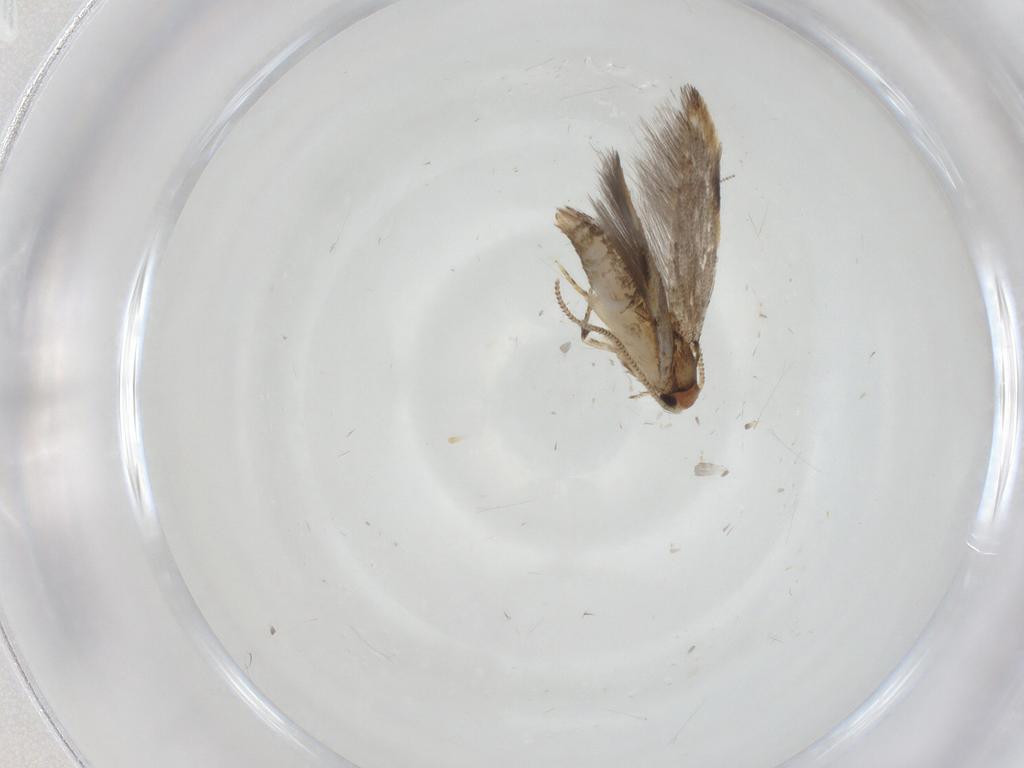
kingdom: Animalia
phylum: Arthropoda
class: Insecta
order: Lepidoptera
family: Tineidae
